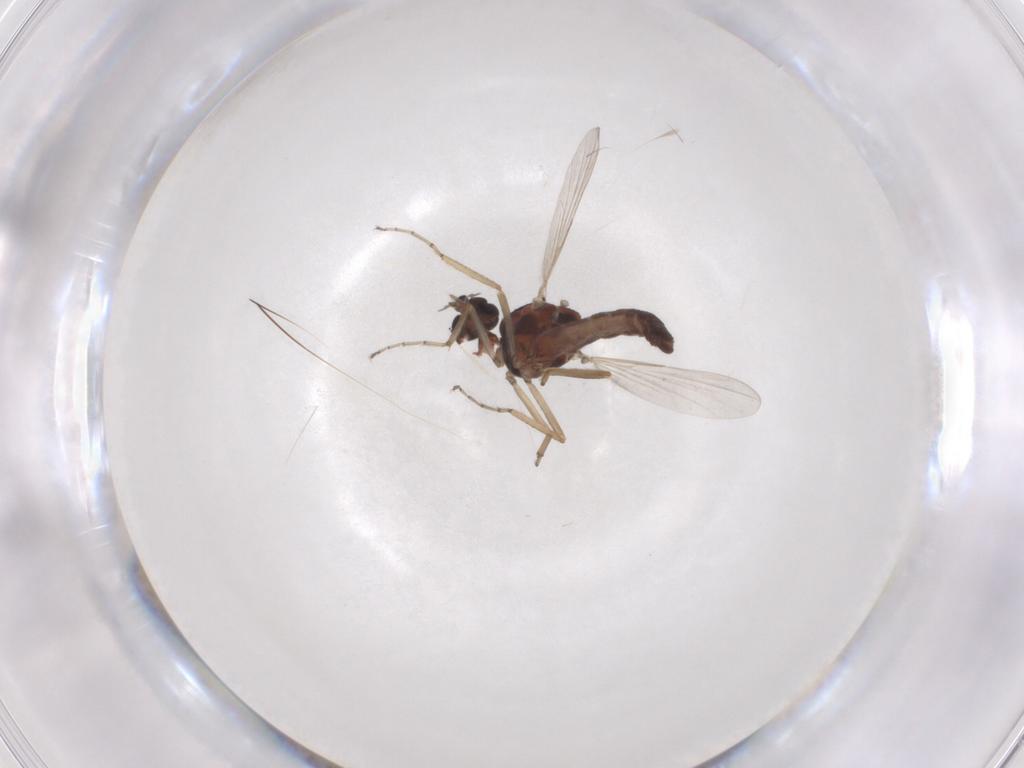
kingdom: Animalia
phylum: Arthropoda
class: Insecta
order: Diptera
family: Ceratopogonidae
